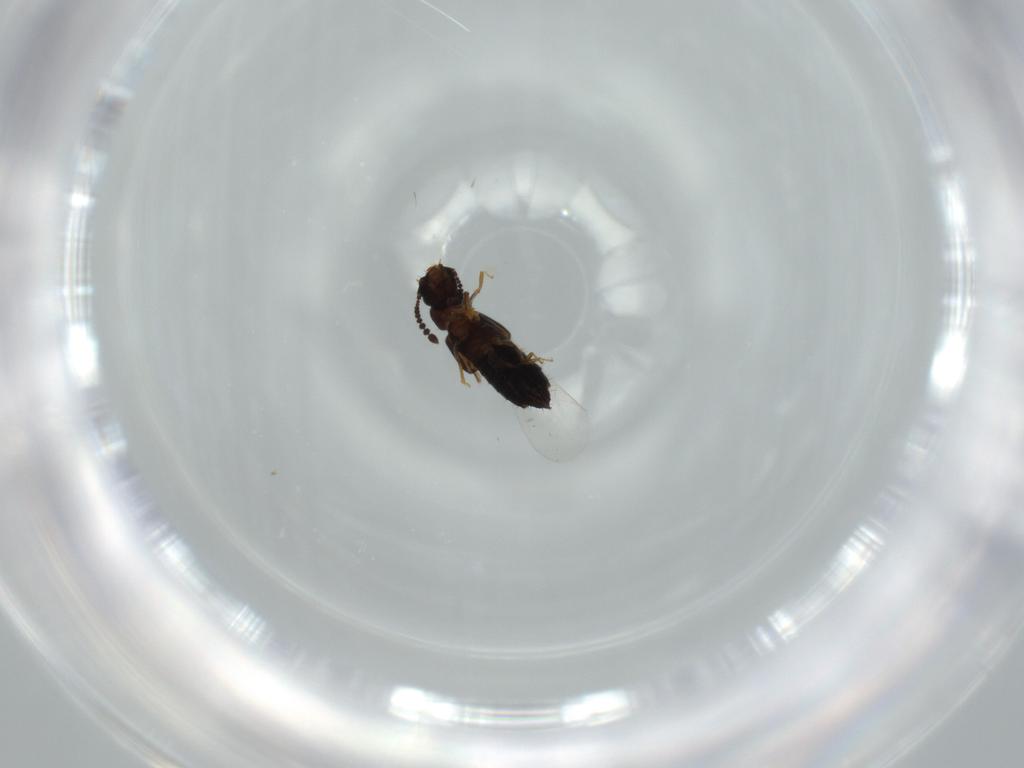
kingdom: Animalia
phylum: Arthropoda
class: Insecta
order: Coleoptera
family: Staphylinidae
